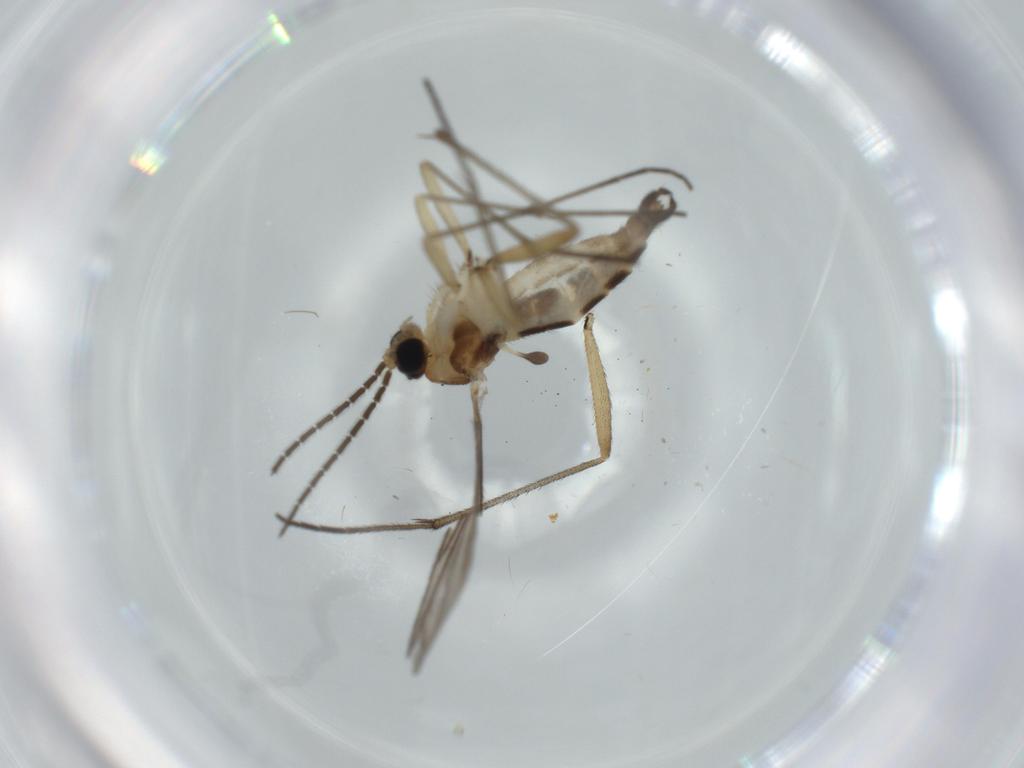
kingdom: Animalia
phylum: Arthropoda
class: Insecta
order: Diptera
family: Sciaridae
